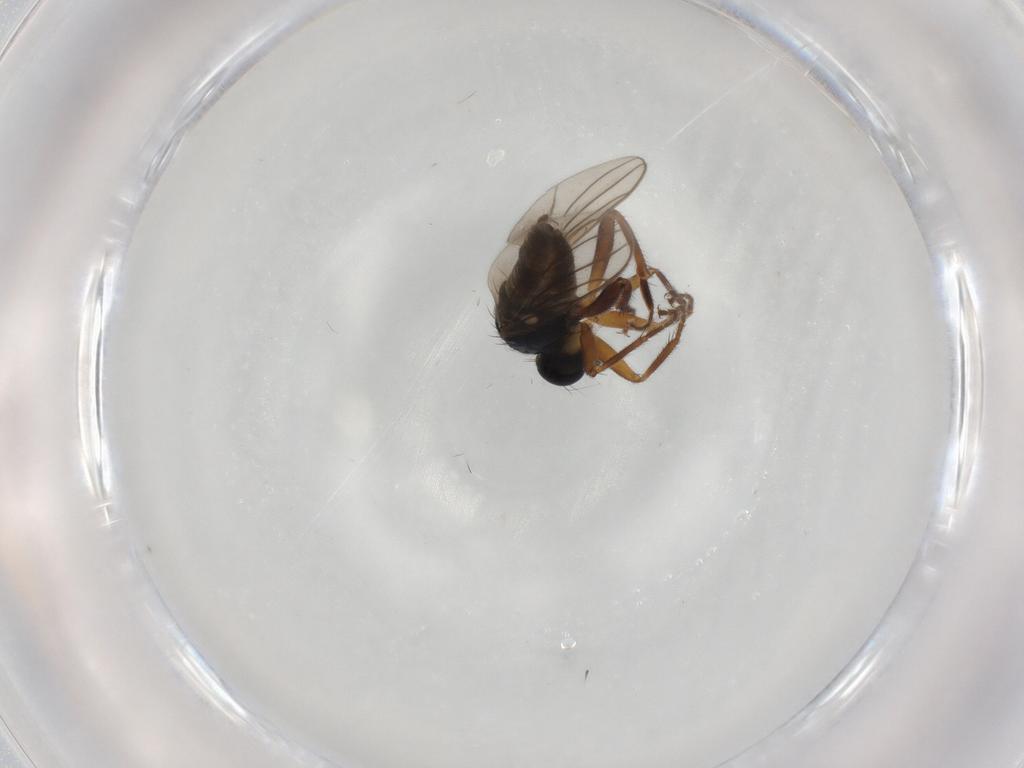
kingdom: Animalia
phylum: Arthropoda
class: Insecta
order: Diptera
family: Hybotidae
